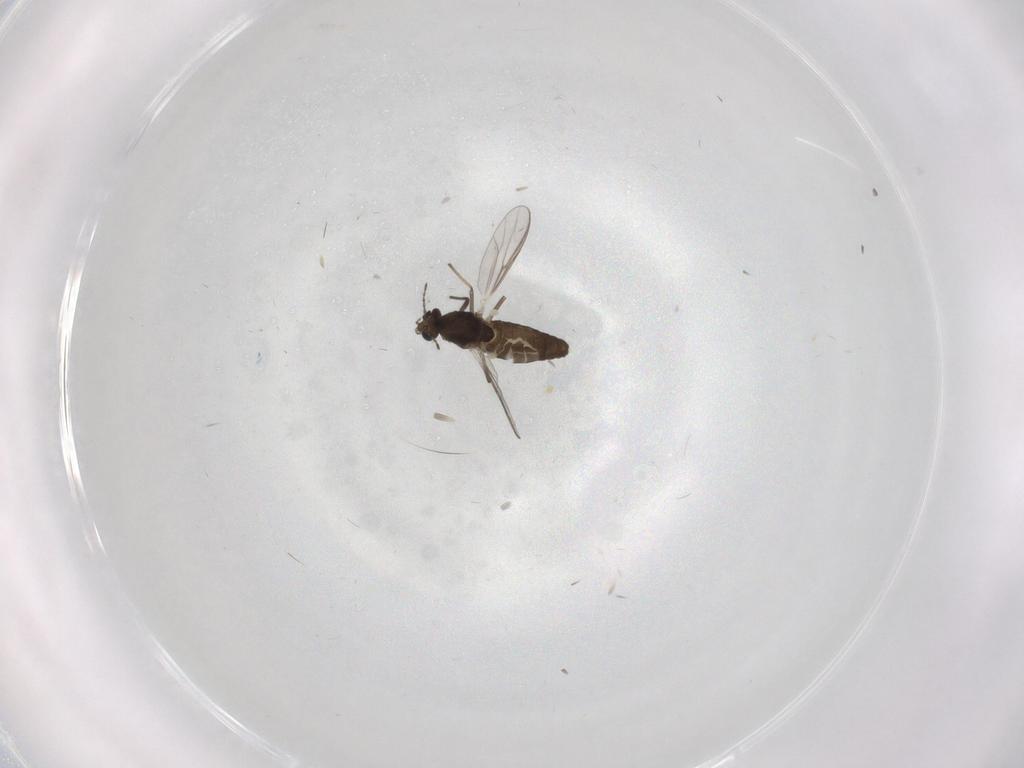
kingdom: Animalia
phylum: Arthropoda
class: Insecta
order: Diptera
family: Chironomidae
